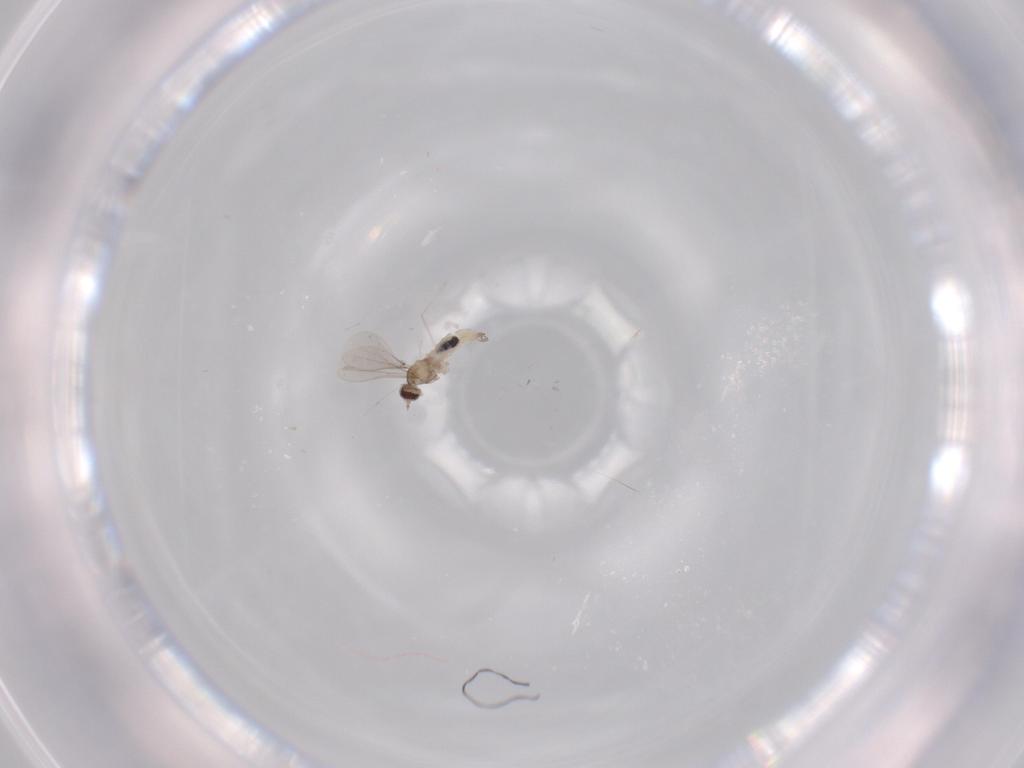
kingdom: Animalia
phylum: Arthropoda
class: Insecta
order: Diptera
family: Cecidomyiidae
